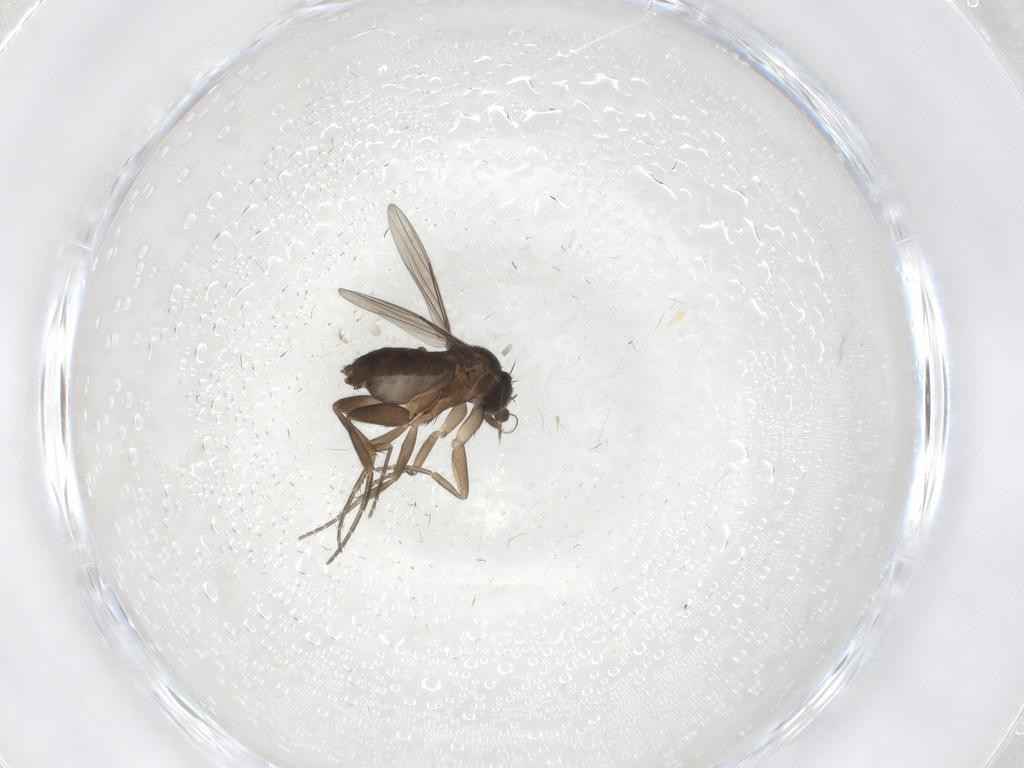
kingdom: Animalia
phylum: Arthropoda
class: Insecta
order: Diptera
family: Phoridae
